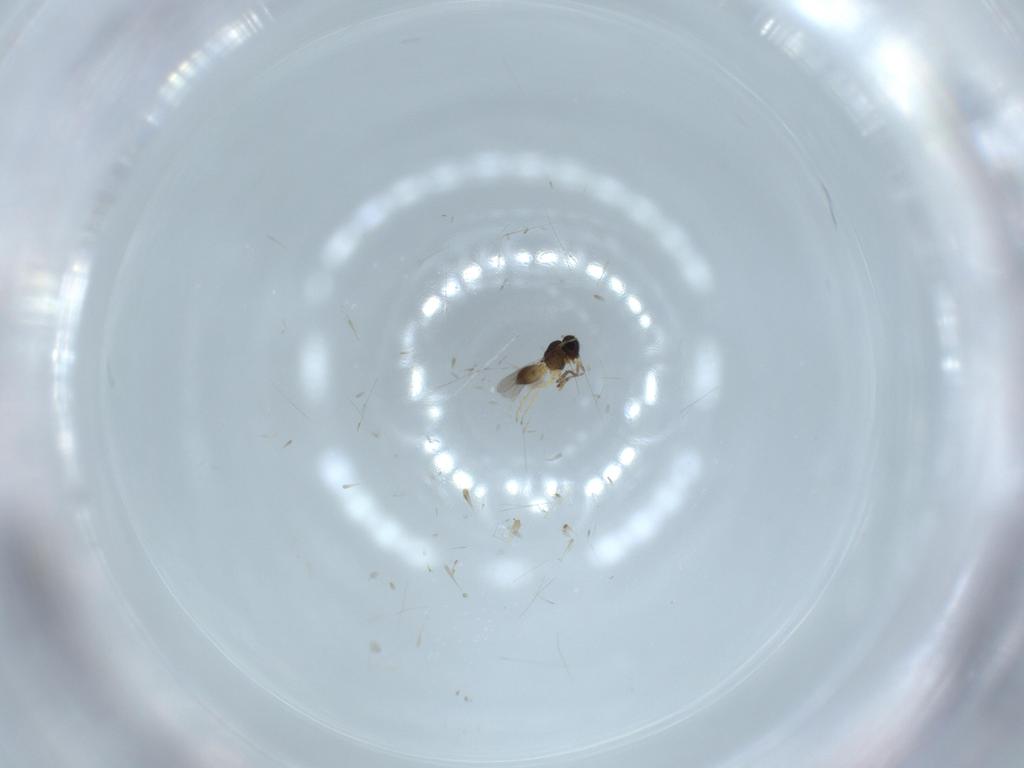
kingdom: Animalia
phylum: Arthropoda
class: Insecta
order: Hymenoptera
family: Scelionidae
